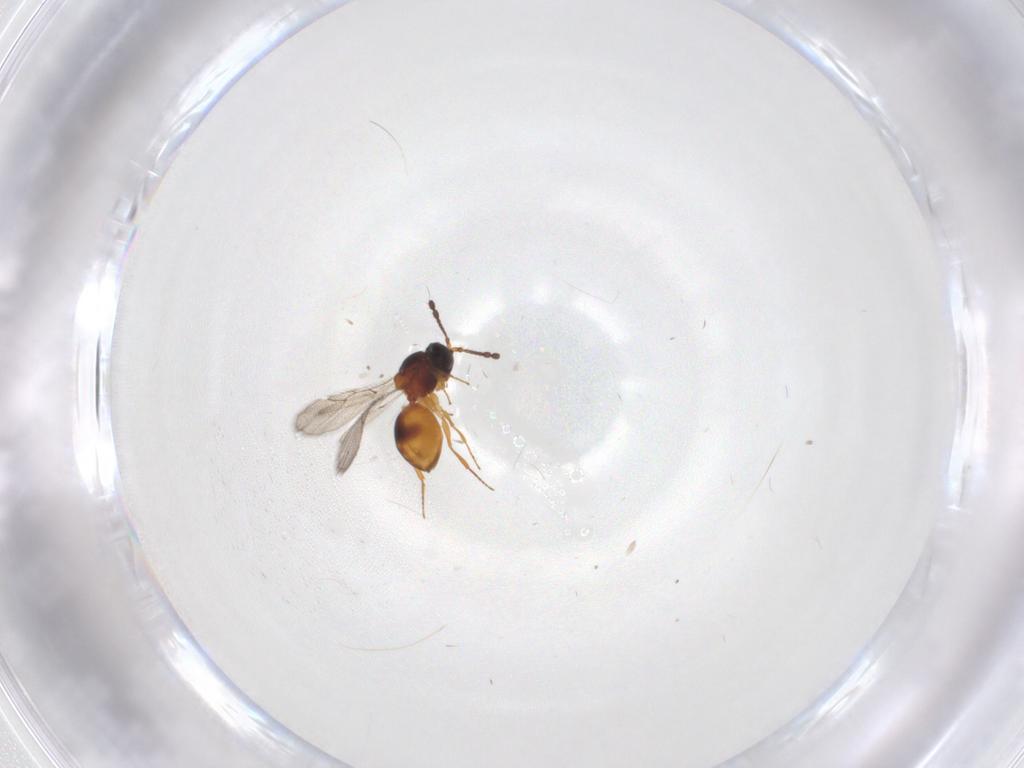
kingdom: Animalia
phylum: Arthropoda
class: Insecta
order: Hymenoptera
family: Figitidae
